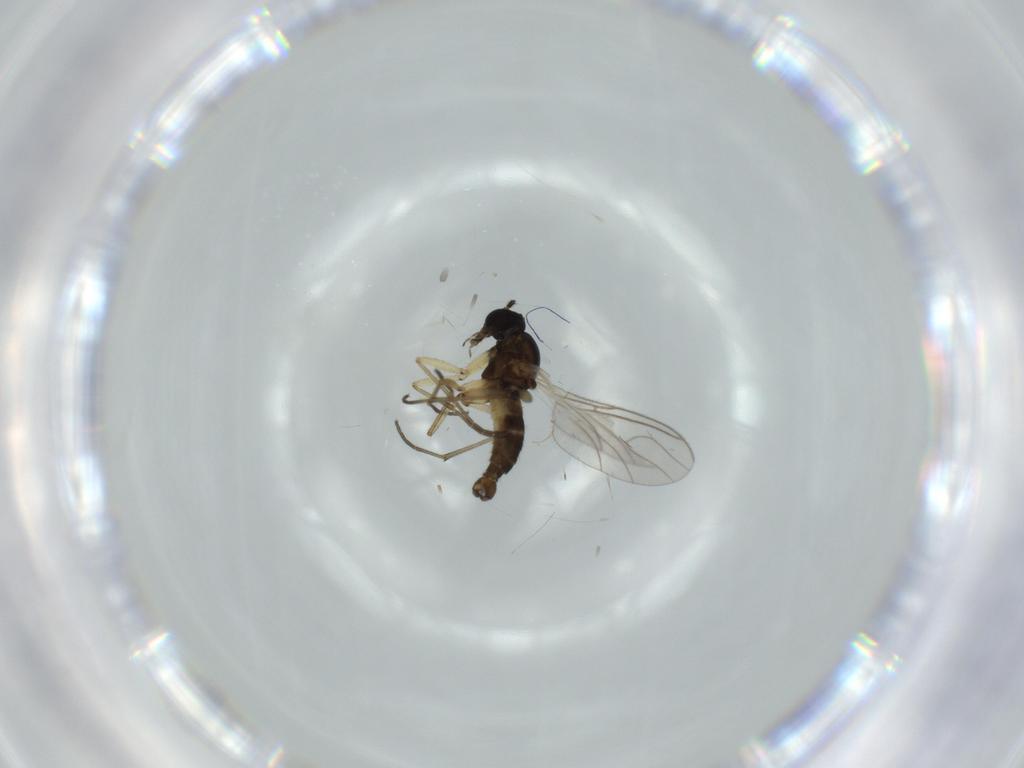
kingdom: Animalia
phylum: Arthropoda
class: Insecta
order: Diptera
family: Sciaridae
